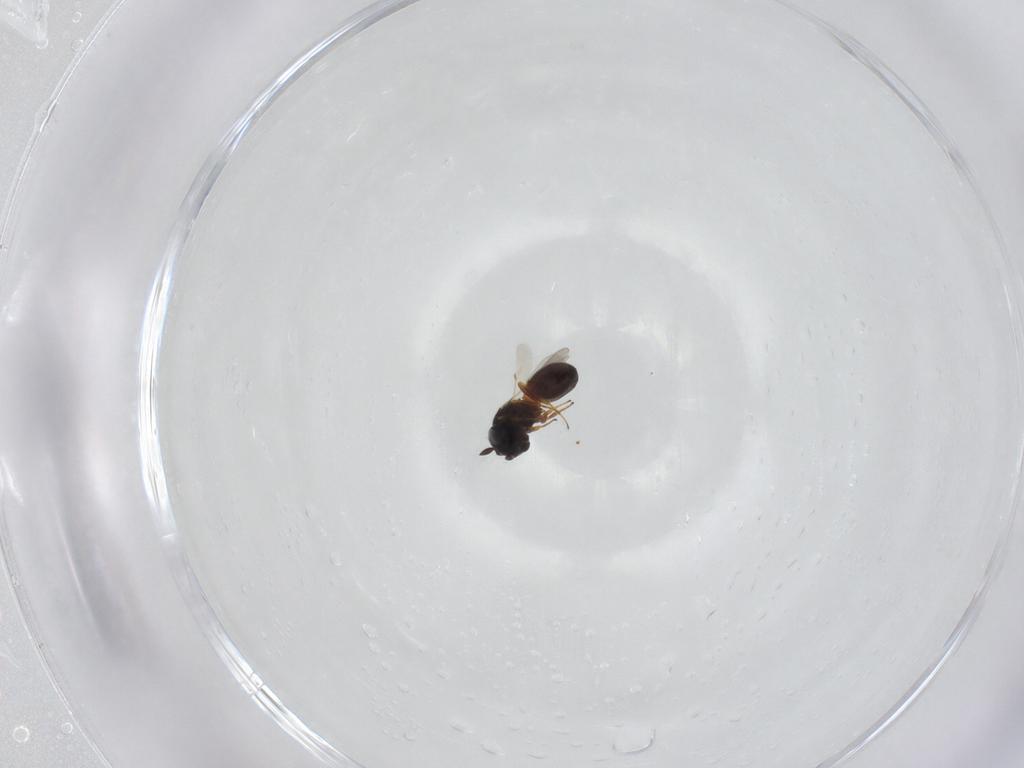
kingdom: Animalia
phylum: Arthropoda
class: Insecta
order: Hymenoptera
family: Scelionidae
